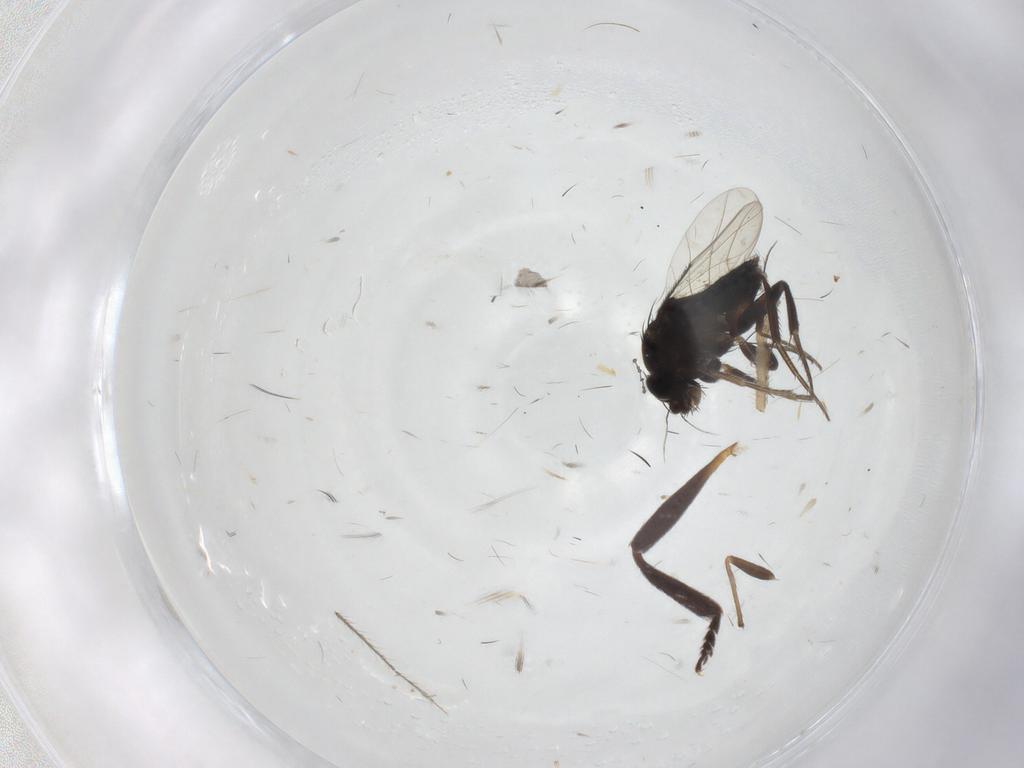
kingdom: Animalia
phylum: Arthropoda
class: Insecta
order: Diptera
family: Phoridae
